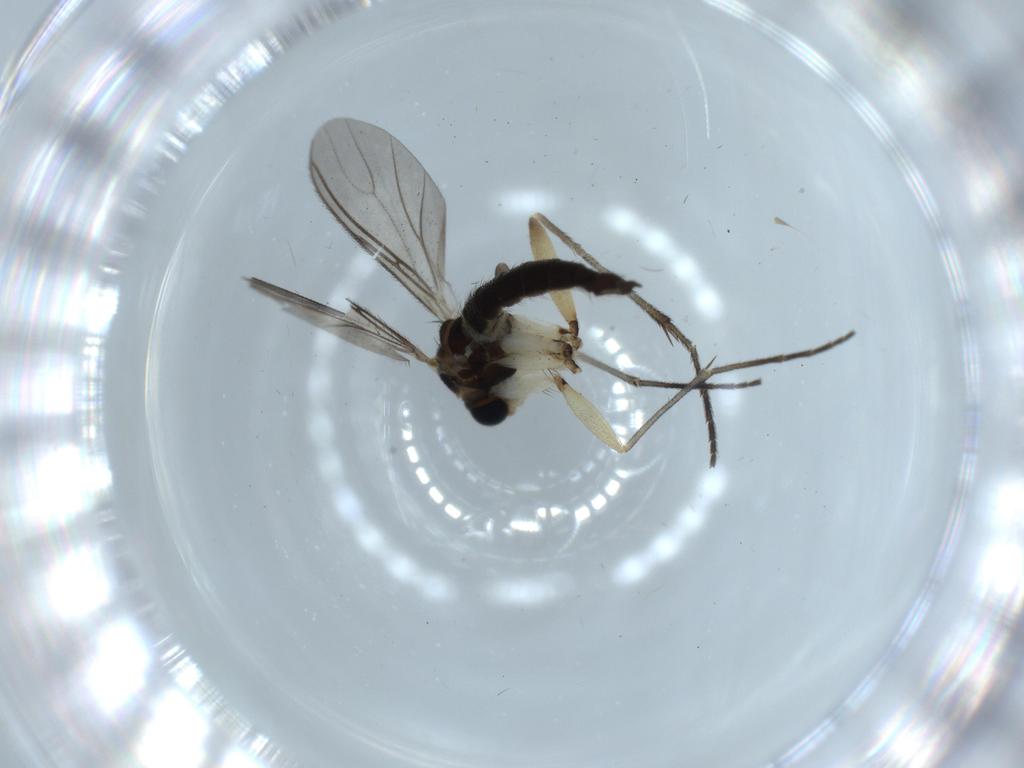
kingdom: Animalia
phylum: Arthropoda
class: Insecta
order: Diptera
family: Sciaridae
